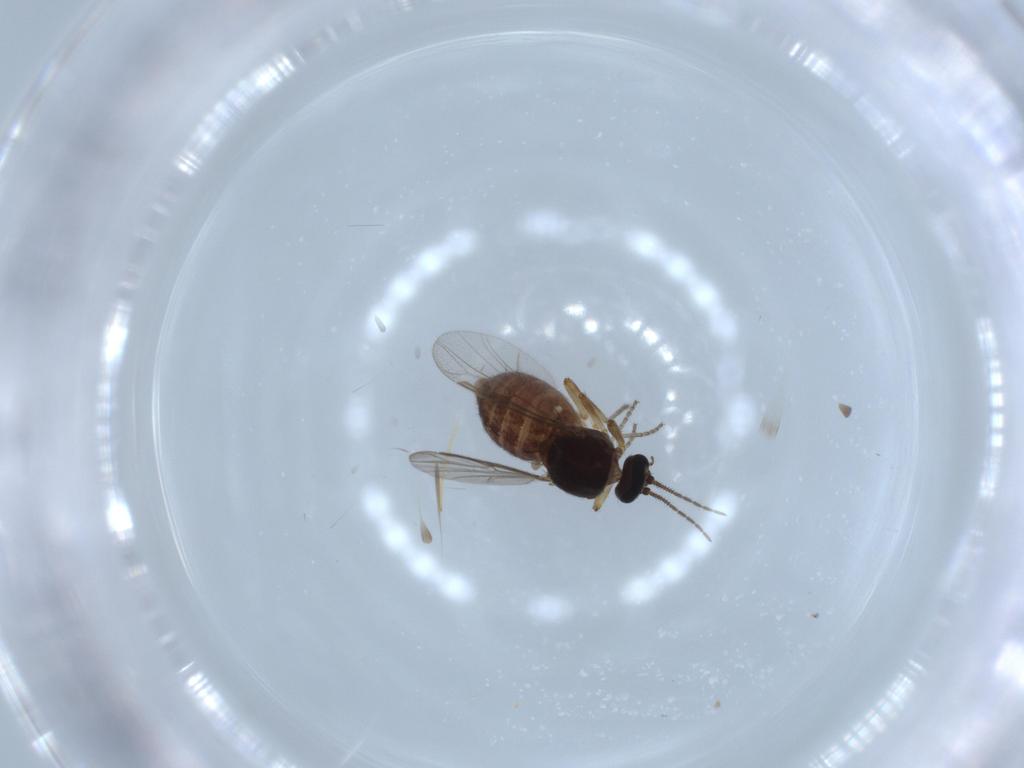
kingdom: Animalia
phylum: Arthropoda
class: Insecta
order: Diptera
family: Ceratopogonidae
